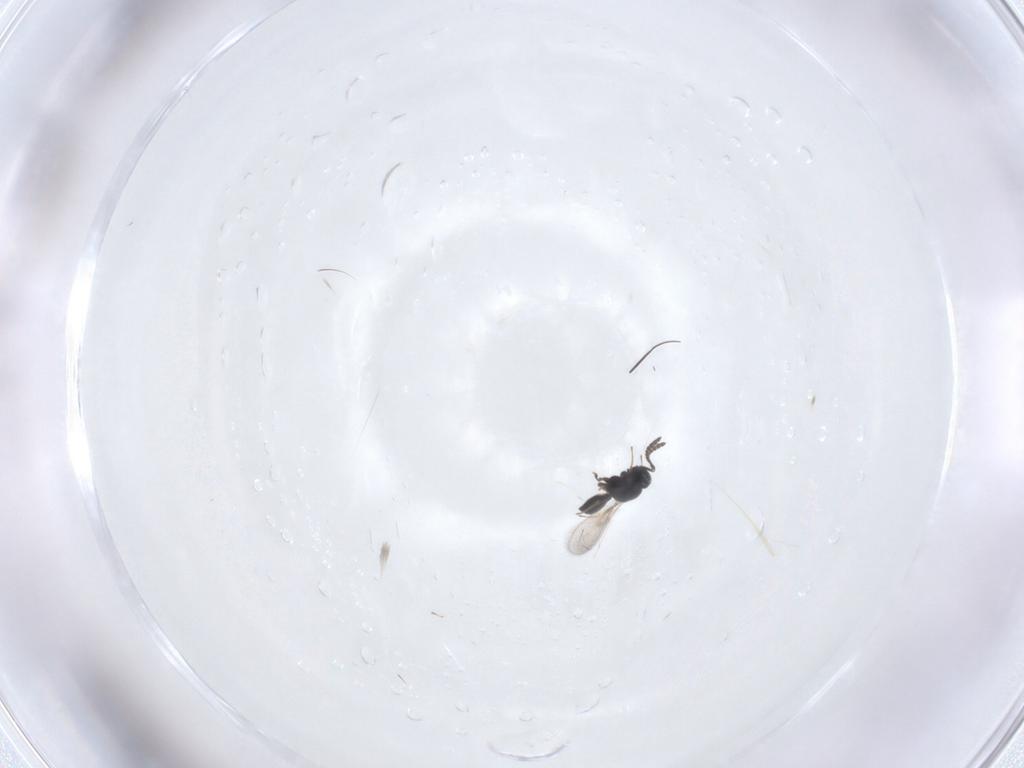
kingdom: Animalia
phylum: Arthropoda
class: Insecta
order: Hymenoptera
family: Scelionidae
